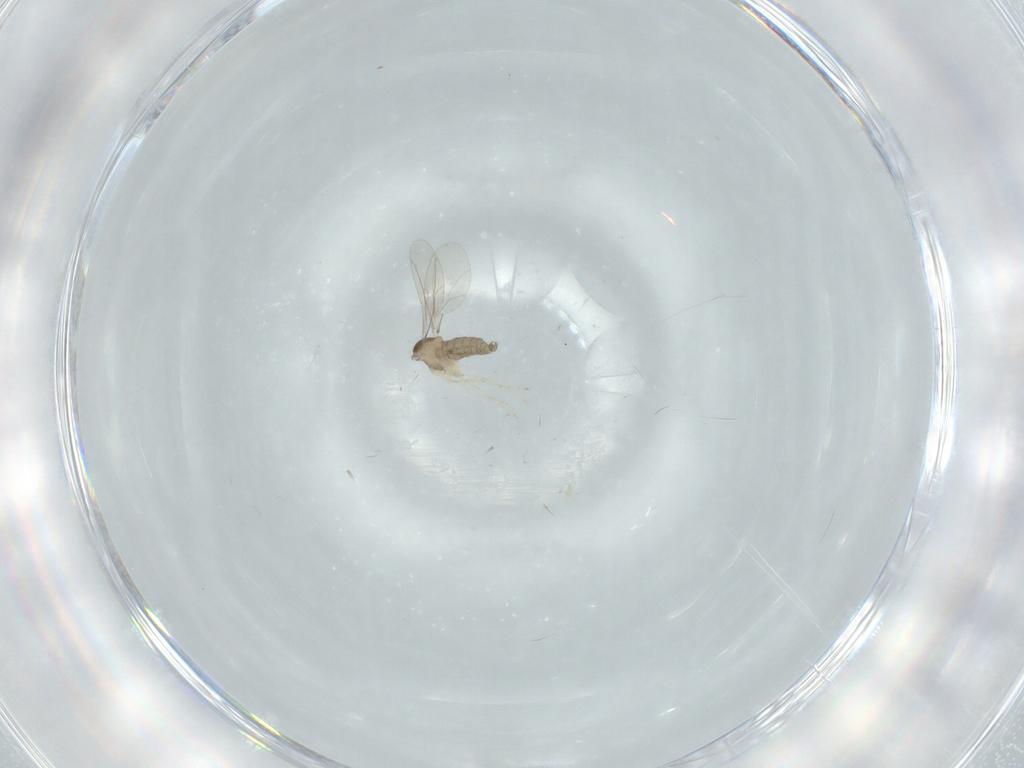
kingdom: Animalia
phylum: Arthropoda
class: Insecta
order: Diptera
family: Cecidomyiidae
